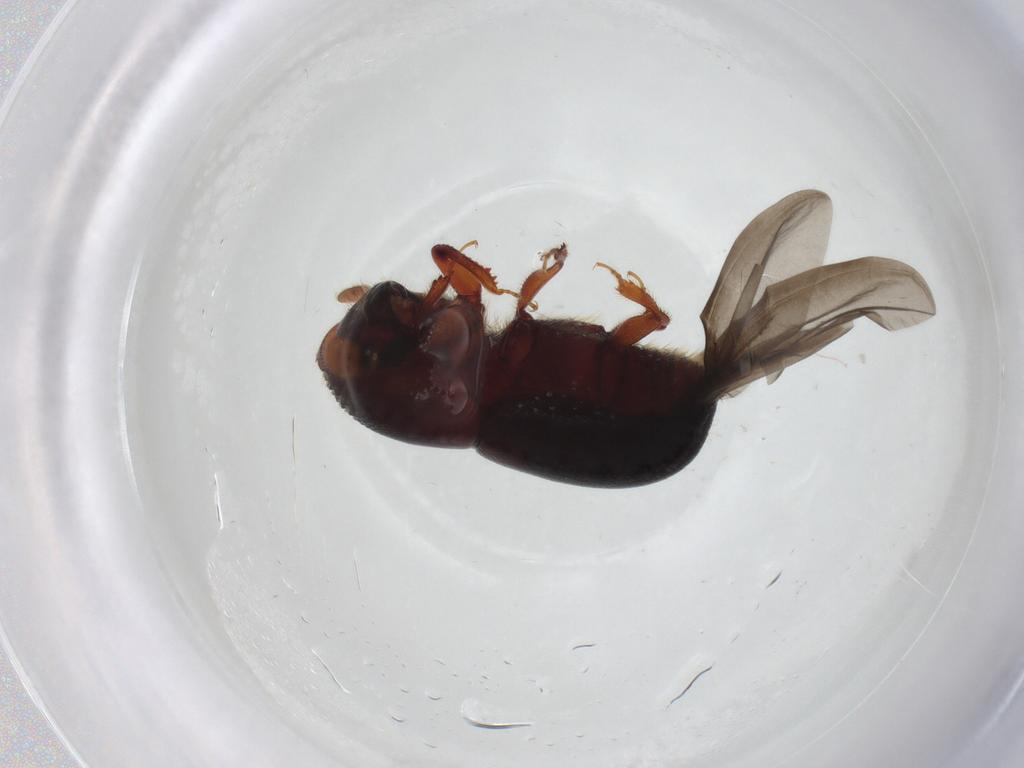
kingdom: Animalia
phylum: Arthropoda
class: Insecta
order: Coleoptera
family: Curculionidae
